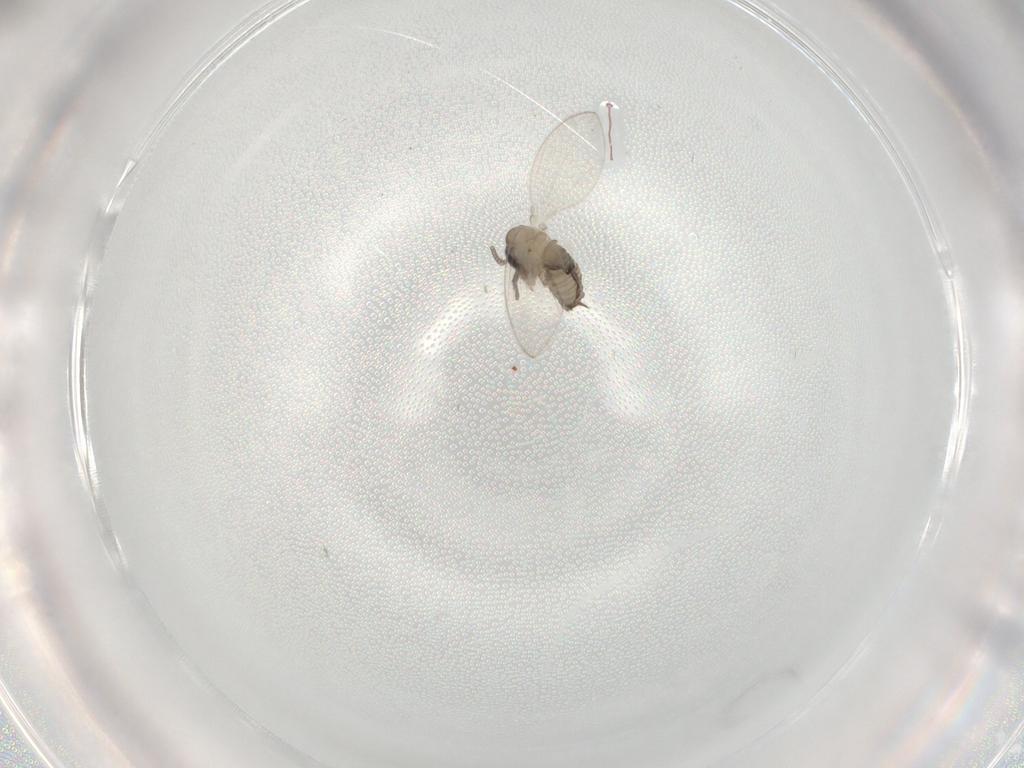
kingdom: Animalia
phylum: Arthropoda
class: Insecta
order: Diptera
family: Psychodidae
